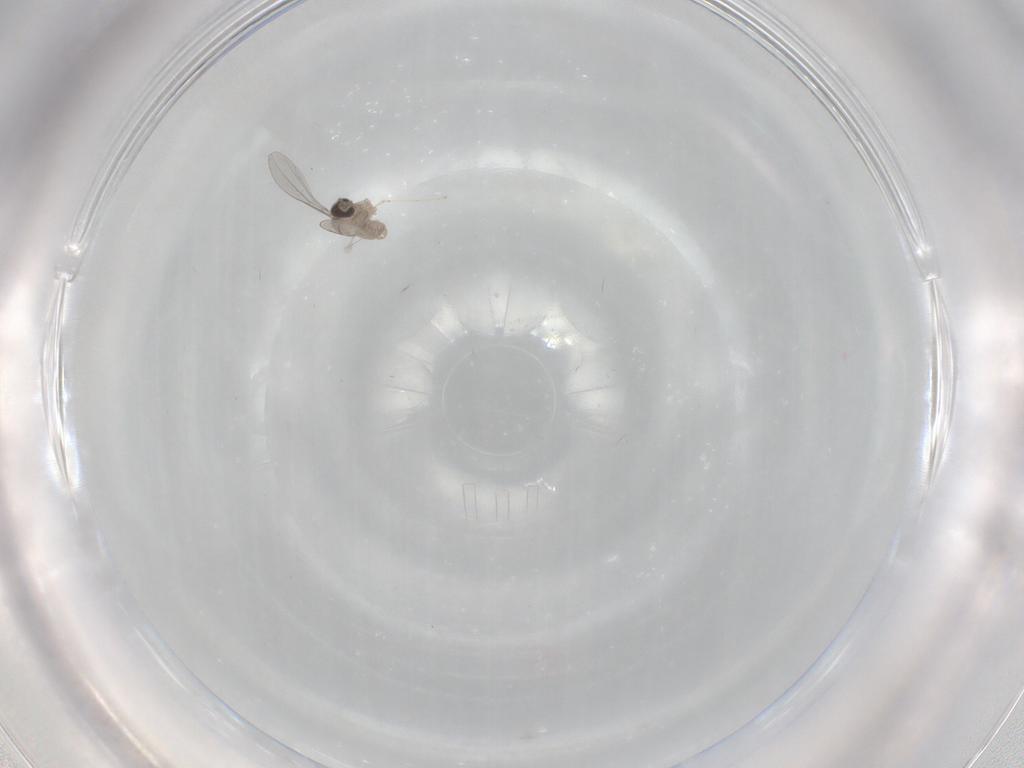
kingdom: Animalia
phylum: Arthropoda
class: Insecta
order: Diptera
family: Cecidomyiidae
